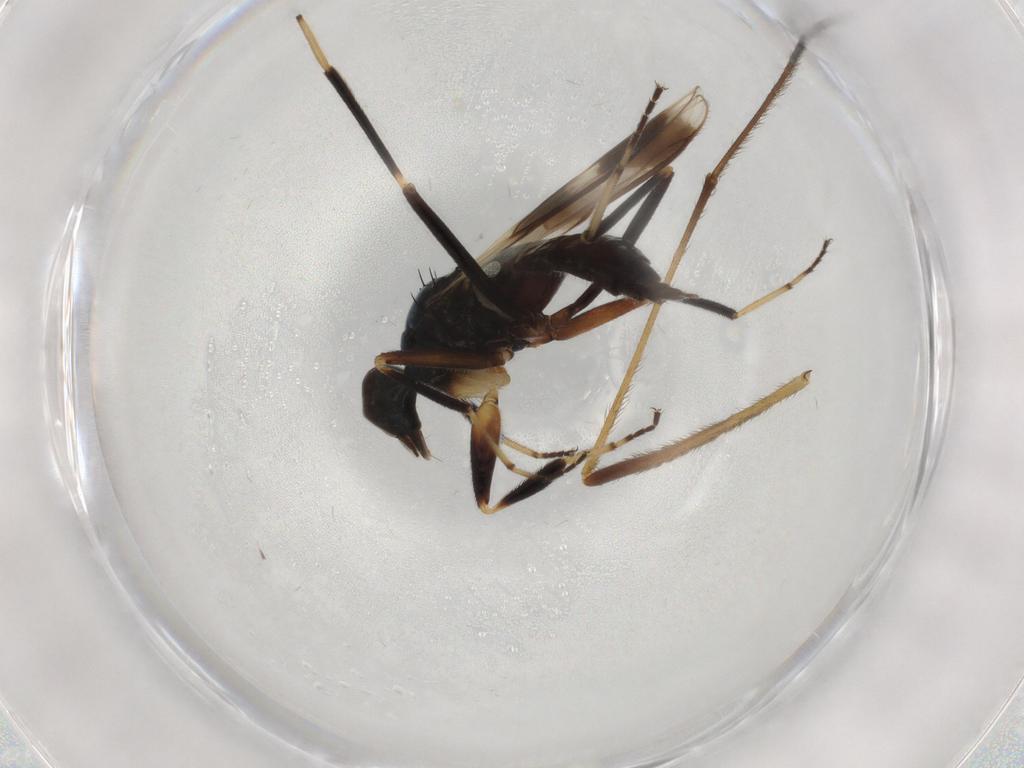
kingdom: Animalia
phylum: Arthropoda
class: Insecta
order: Diptera
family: Hybotidae
